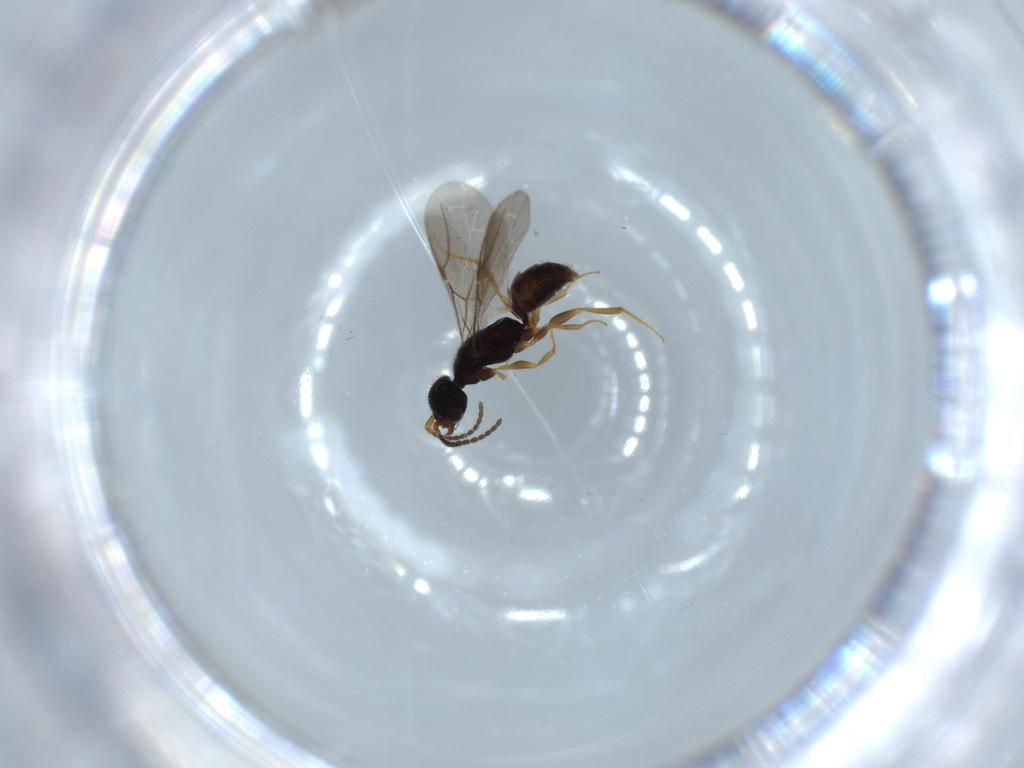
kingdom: Animalia
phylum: Arthropoda
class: Insecta
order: Hymenoptera
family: Bethylidae
